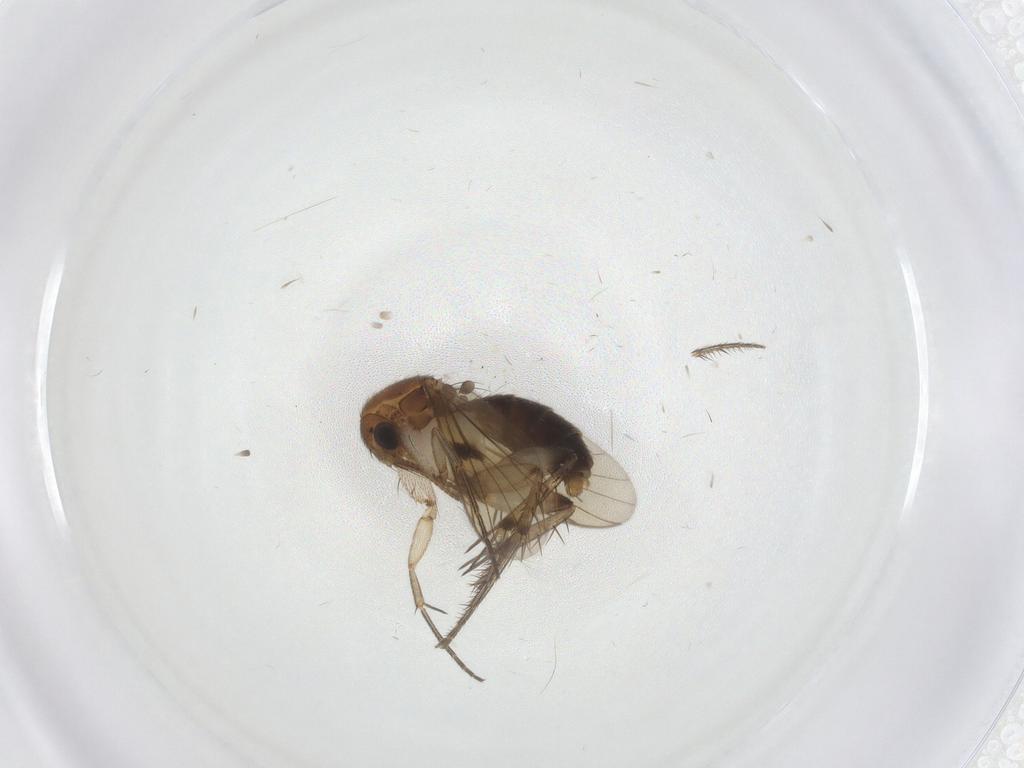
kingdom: Animalia
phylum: Arthropoda
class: Insecta
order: Diptera
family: Mycetophilidae
